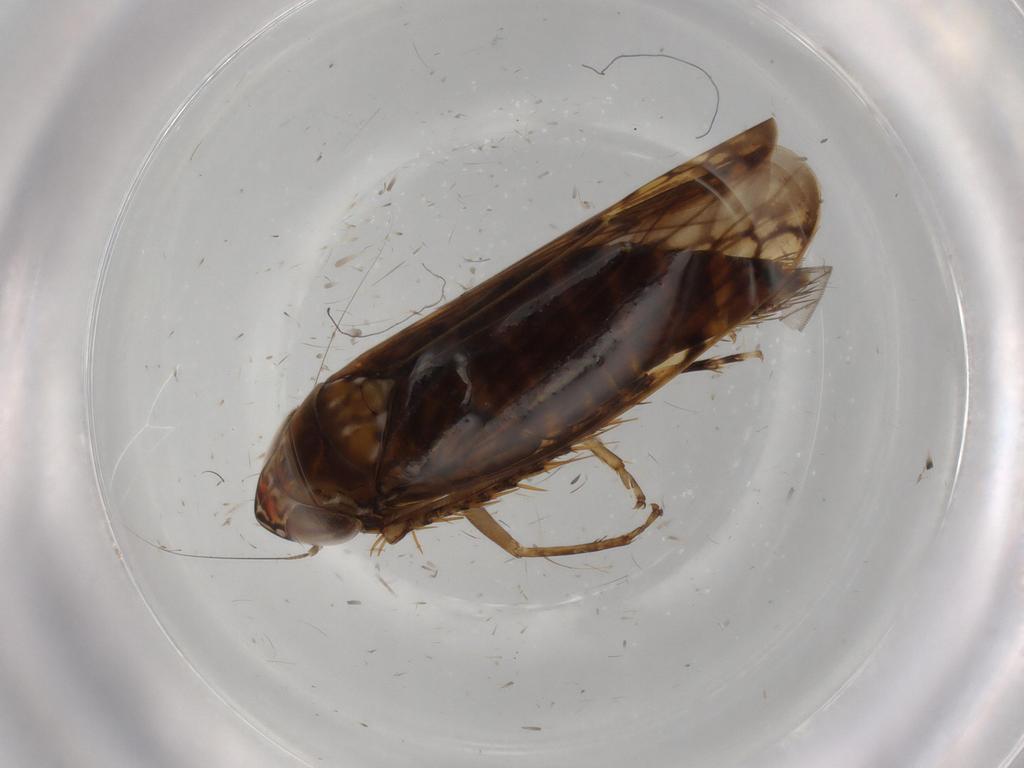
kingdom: Animalia
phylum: Arthropoda
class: Insecta
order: Hemiptera
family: Cicadellidae
